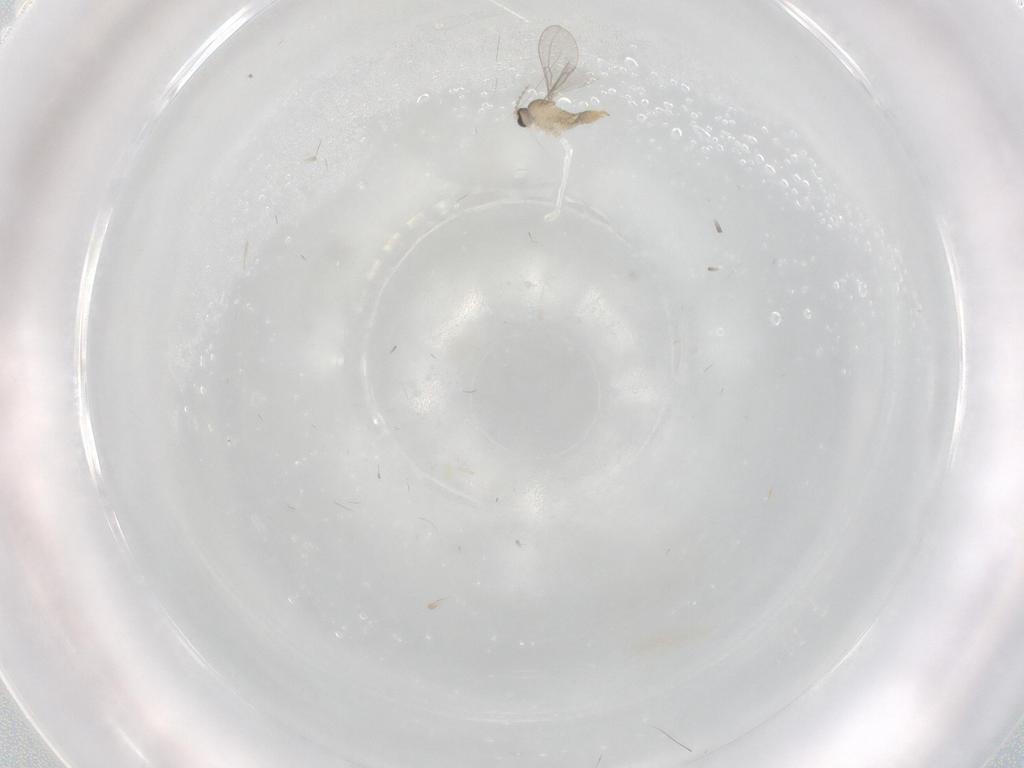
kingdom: Animalia
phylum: Arthropoda
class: Insecta
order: Diptera
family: Cecidomyiidae
